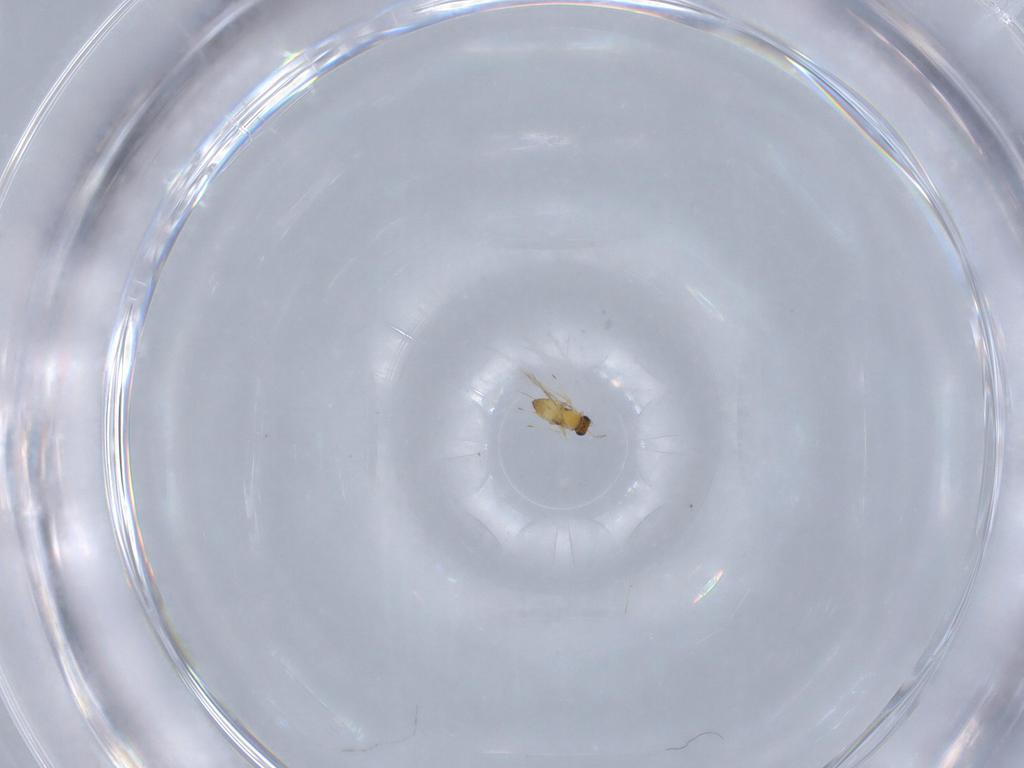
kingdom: Animalia
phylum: Arthropoda
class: Insecta
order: Hymenoptera
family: Trichogrammatidae
